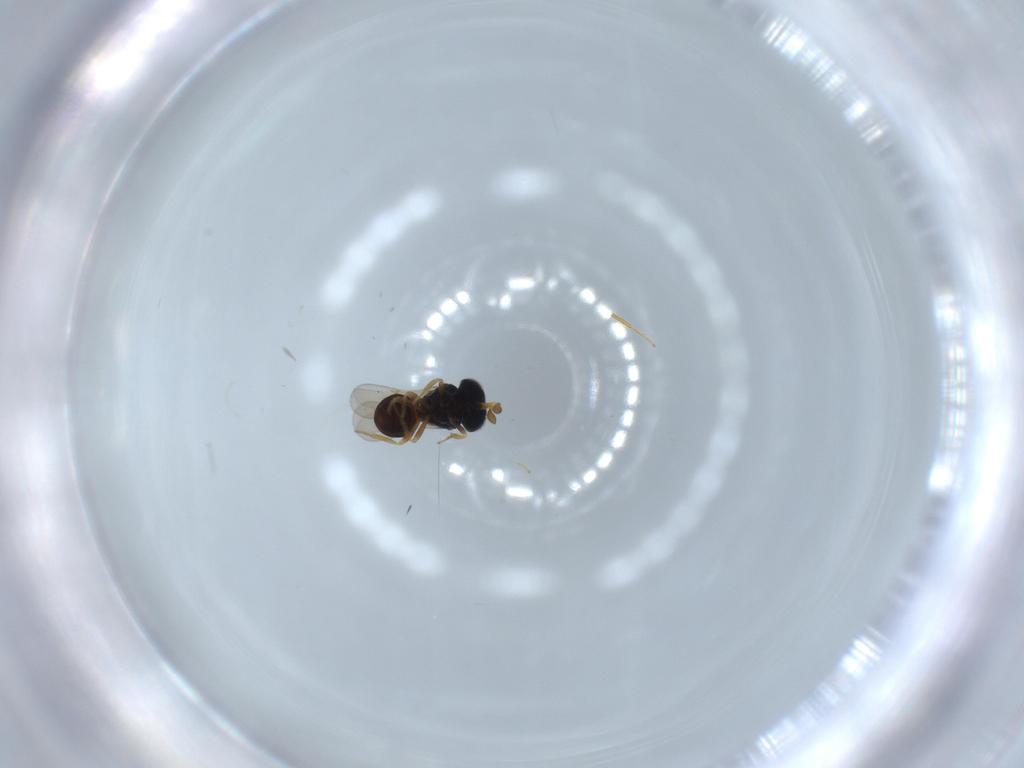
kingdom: Animalia
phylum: Arthropoda
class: Insecta
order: Hymenoptera
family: Scelionidae
